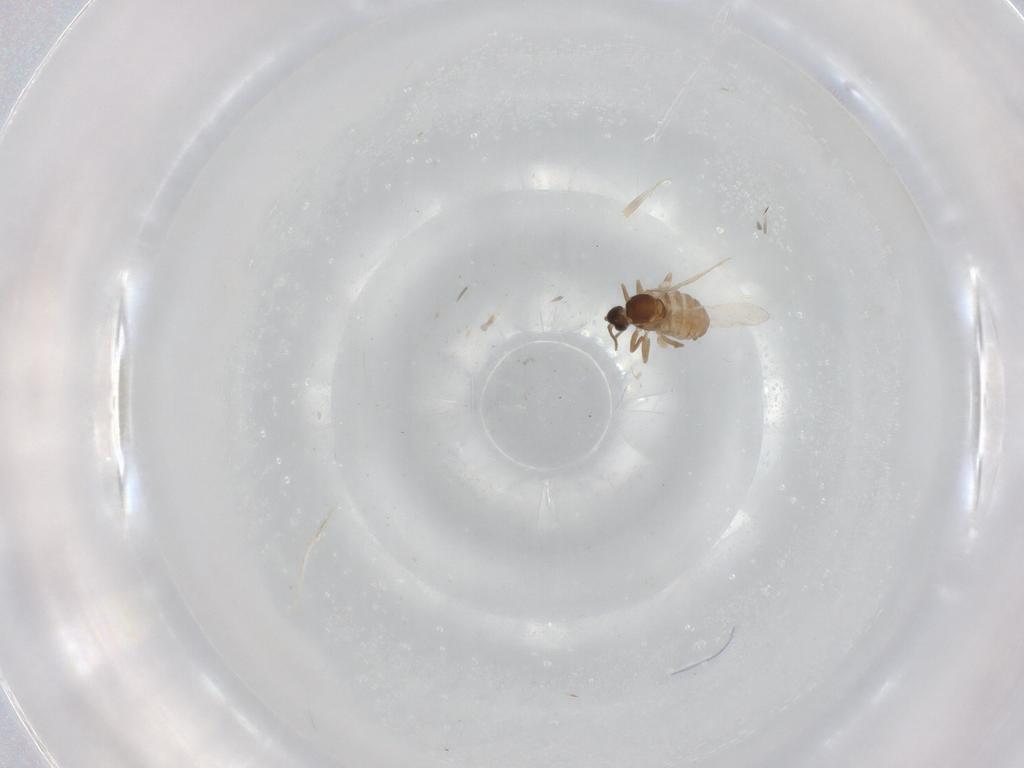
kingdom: Animalia
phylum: Arthropoda
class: Insecta
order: Diptera
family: Cecidomyiidae
